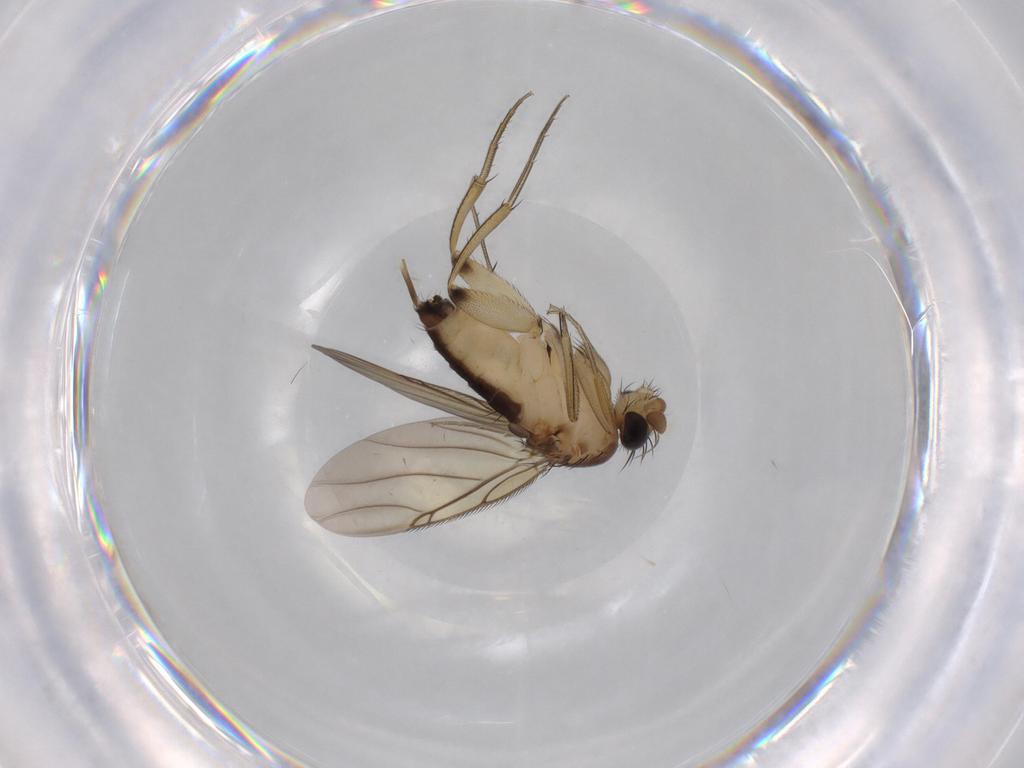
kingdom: Animalia
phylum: Arthropoda
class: Insecta
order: Diptera
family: Phoridae
